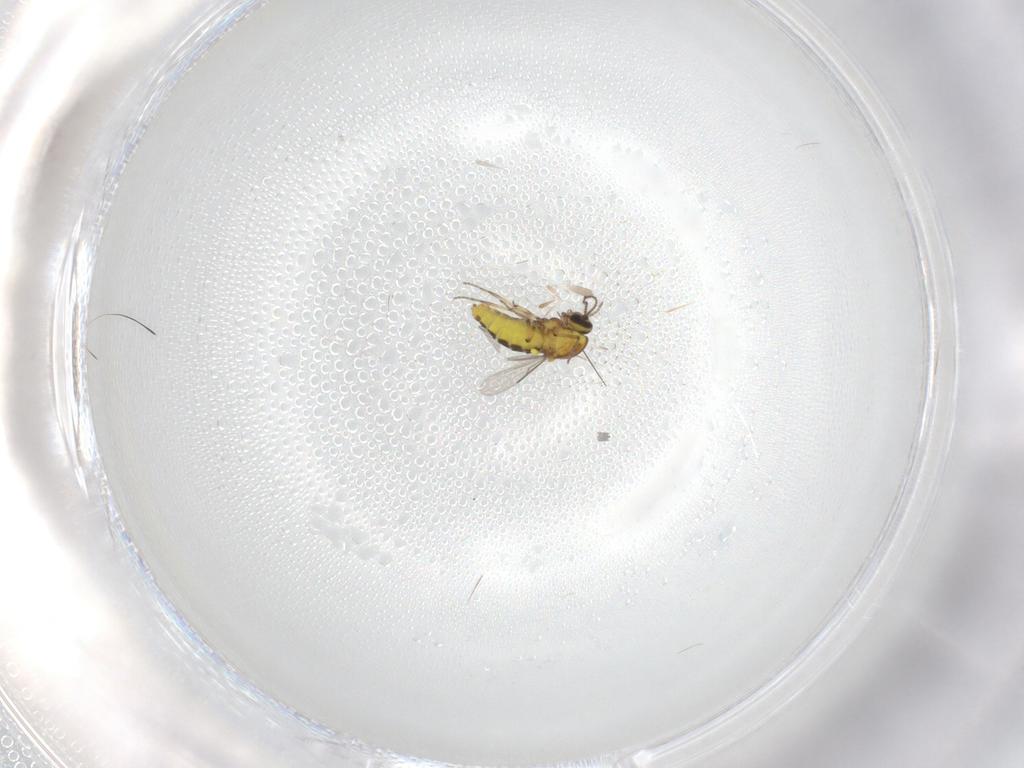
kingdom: Animalia
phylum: Arthropoda
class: Insecta
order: Diptera
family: Ceratopogonidae
